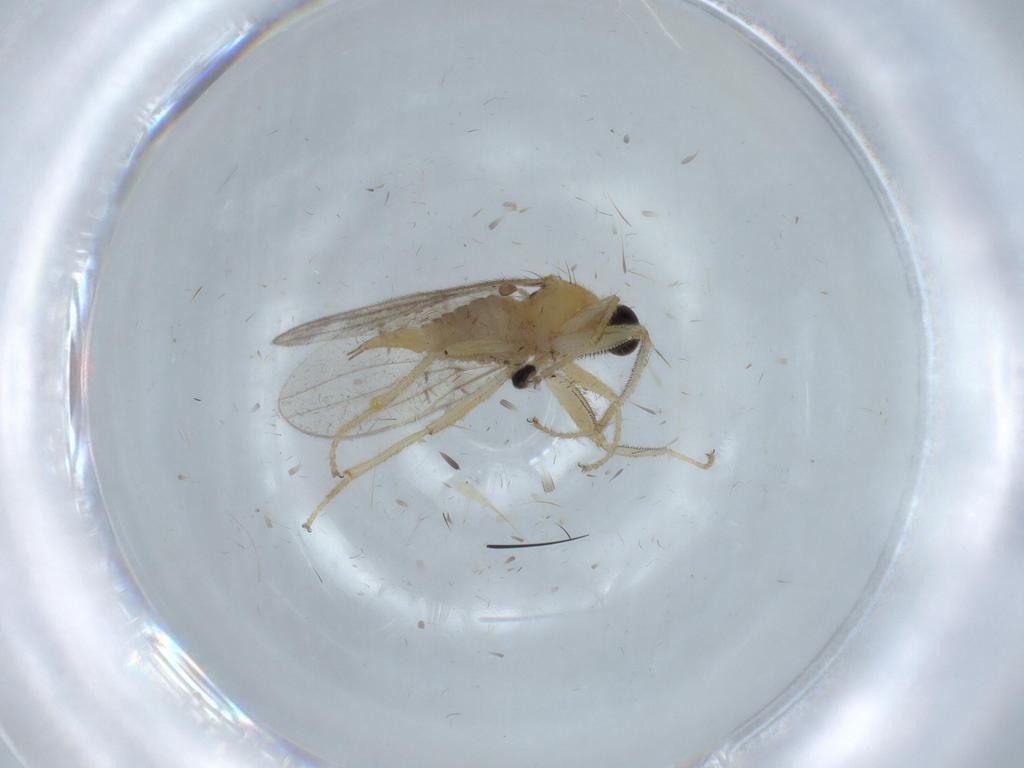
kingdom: Animalia
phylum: Arthropoda
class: Insecta
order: Diptera
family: Hybotidae
